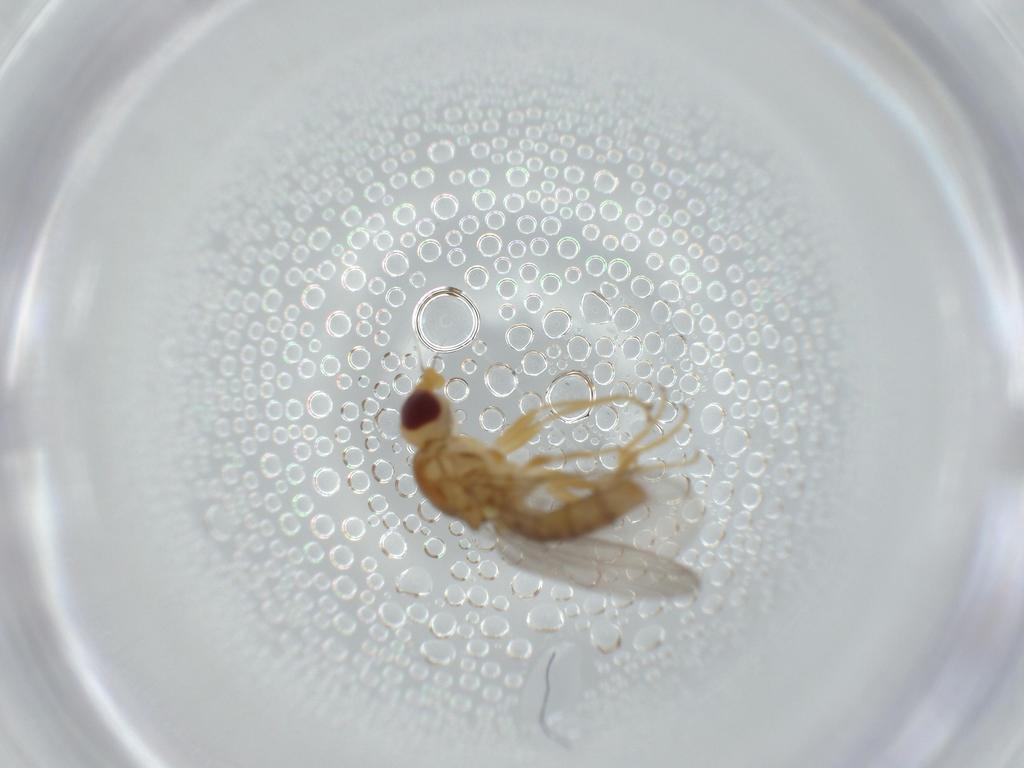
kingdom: Animalia
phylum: Arthropoda
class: Insecta
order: Diptera
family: Chloropidae
